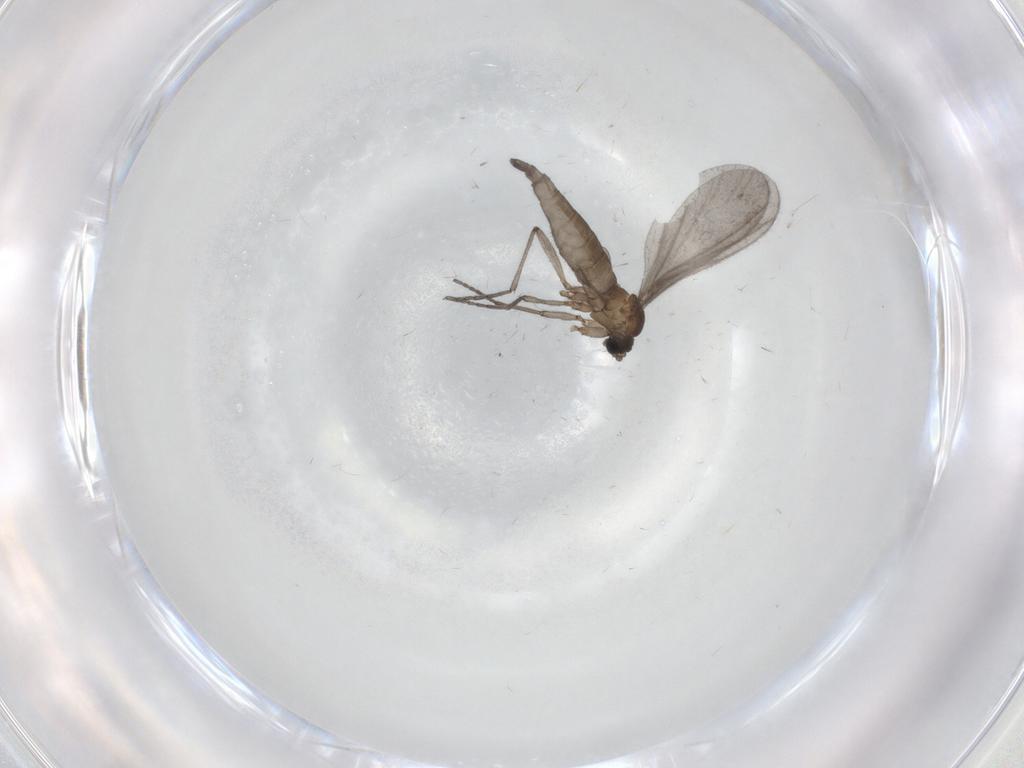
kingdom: Animalia
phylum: Arthropoda
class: Insecta
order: Diptera
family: Sciaridae
